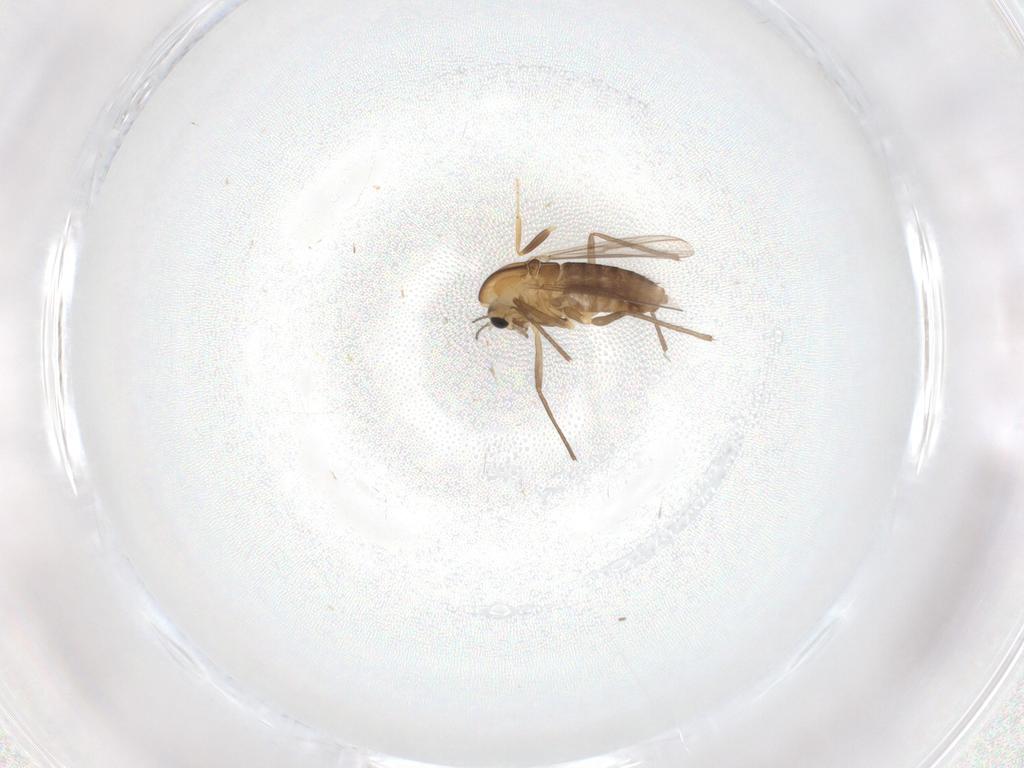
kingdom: Animalia
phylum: Arthropoda
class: Insecta
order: Diptera
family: Chironomidae
